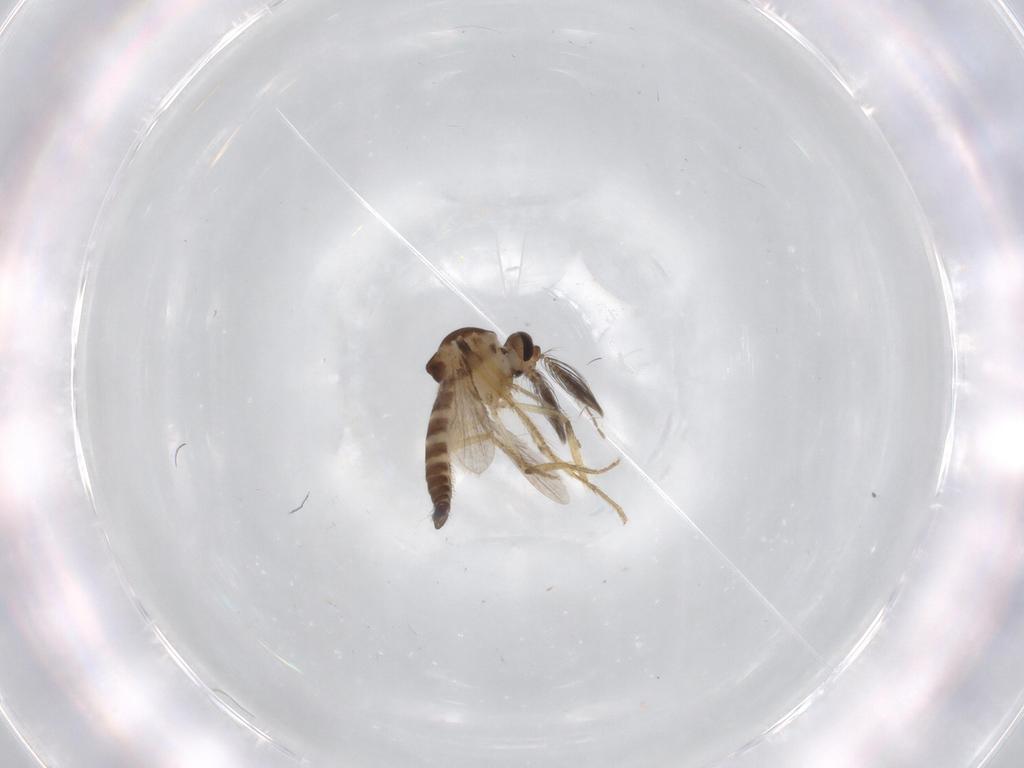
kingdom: Animalia
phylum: Arthropoda
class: Insecta
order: Diptera
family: Ceratopogonidae
